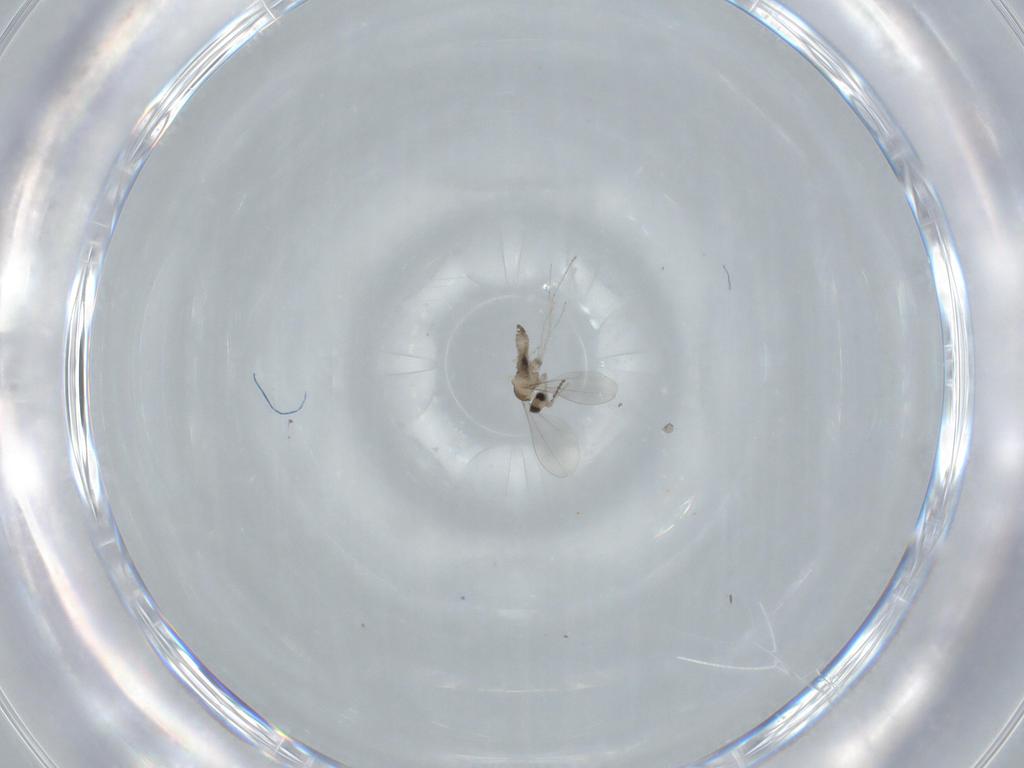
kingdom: Animalia
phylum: Arthropoda
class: Insecta
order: Diptera
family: Cecidomyiidae
